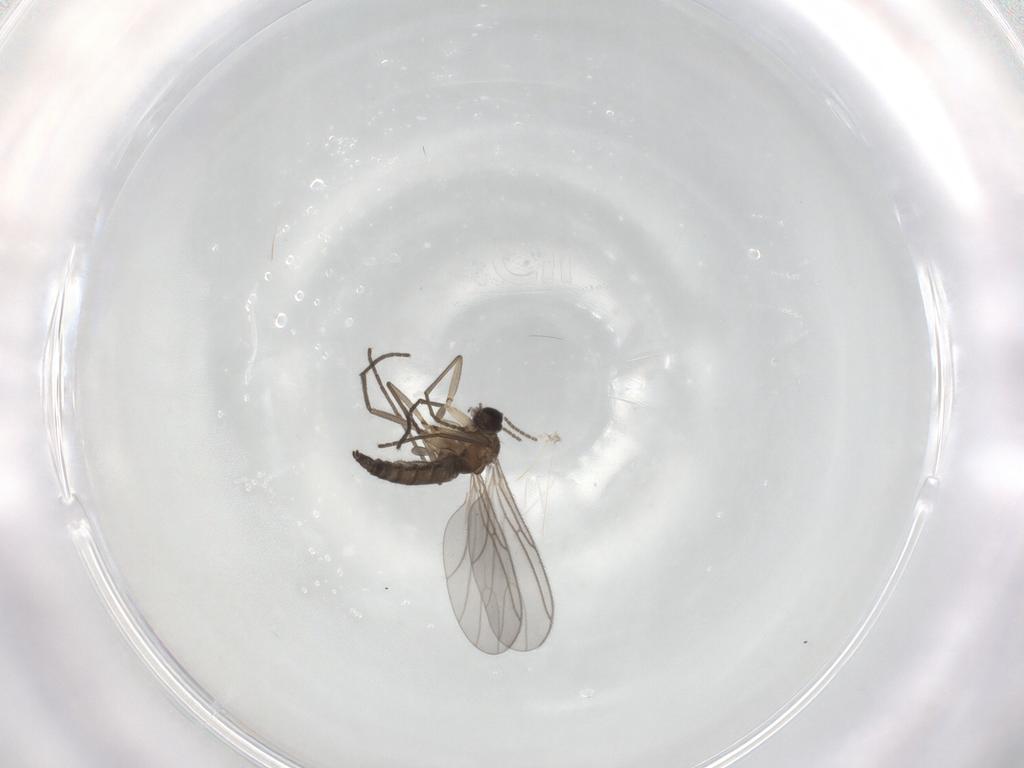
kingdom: Animalia
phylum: Arthropoda
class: Insecta
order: Diptera
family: Sciaridae
